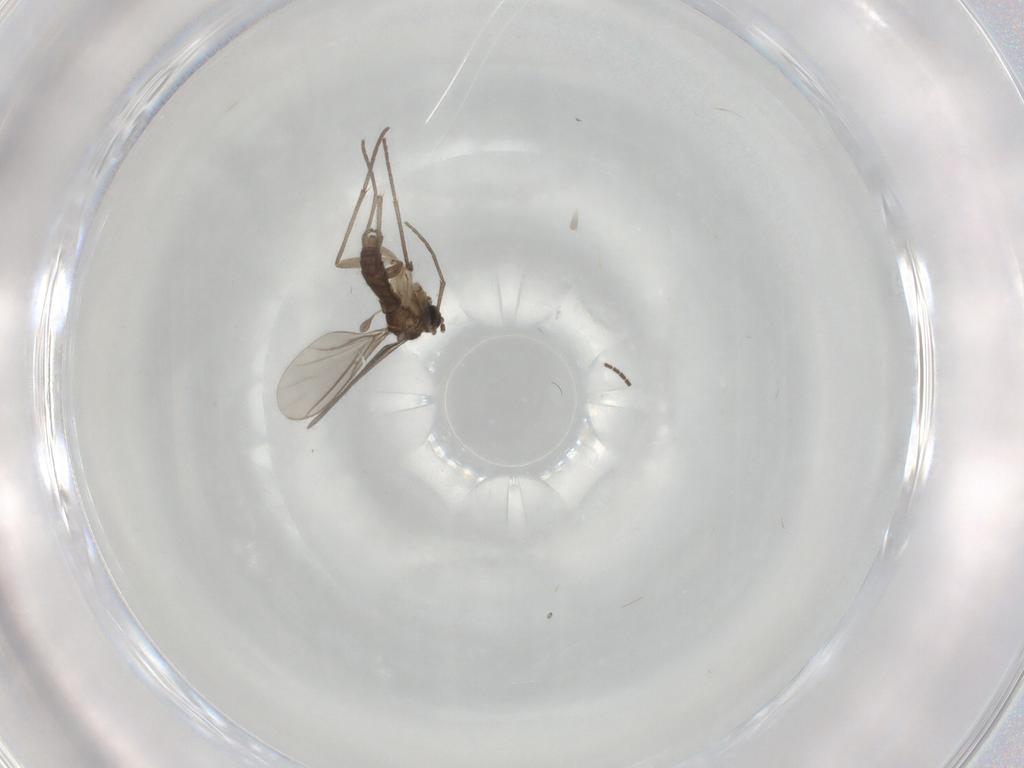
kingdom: Animalia
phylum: Arthropoda
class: Insecta
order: Diptera
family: Sciaridae
